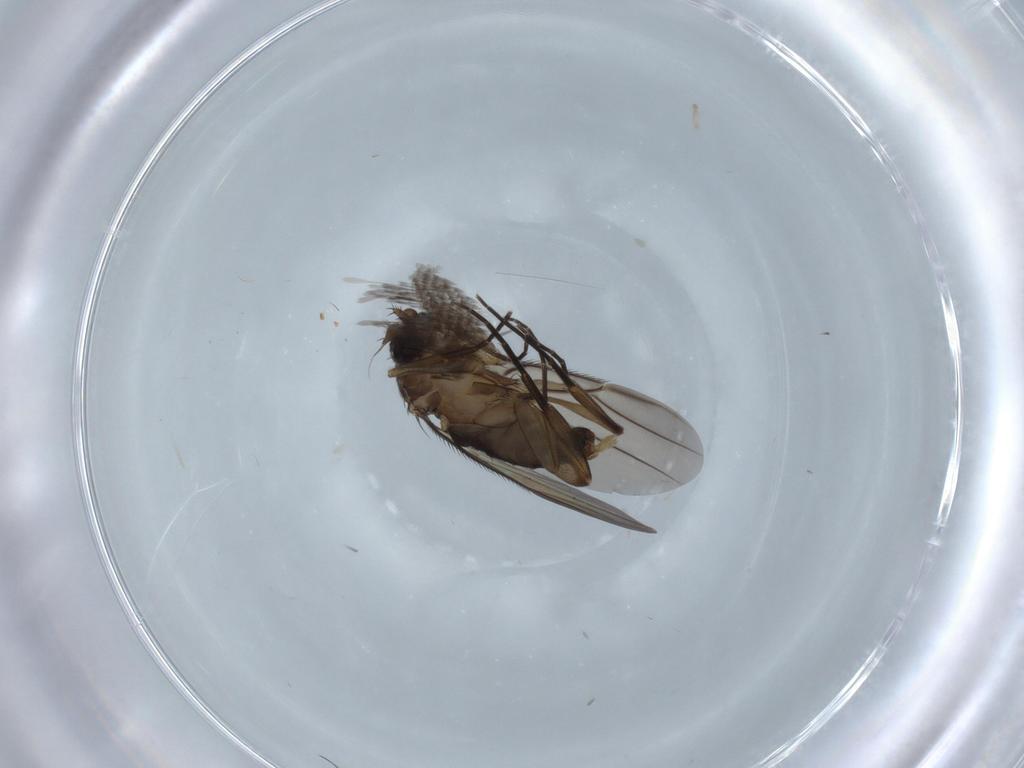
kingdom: Animalia
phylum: Arthropoda
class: Insecta
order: Diptera
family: Phoridae
